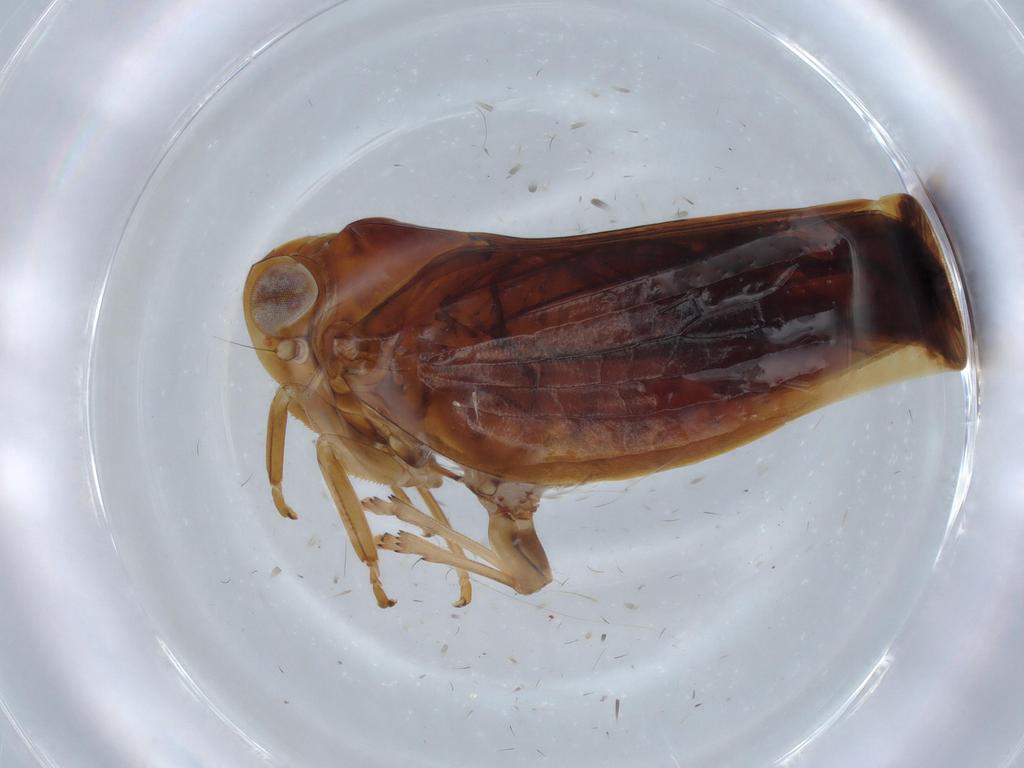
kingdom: Animalia
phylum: Arthropoda
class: Insecta
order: Hemiptera
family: Nogodinidae
